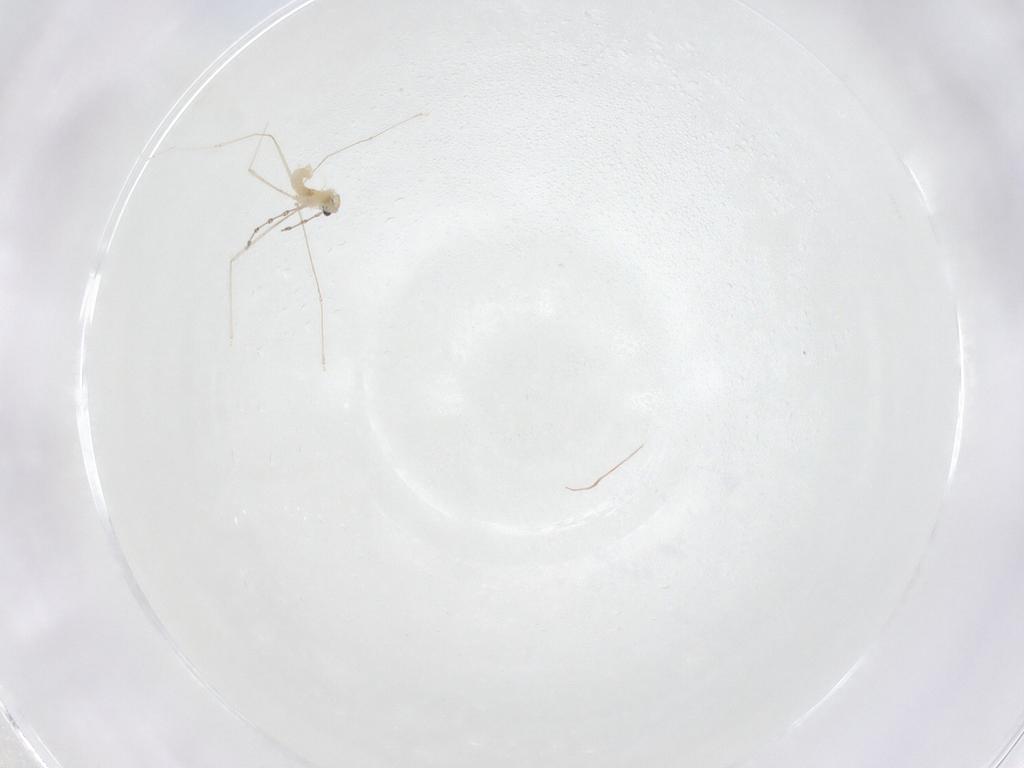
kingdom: Animalia
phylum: Arthropoda
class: Insecta
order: Diptera
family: Cecidomyiidae
